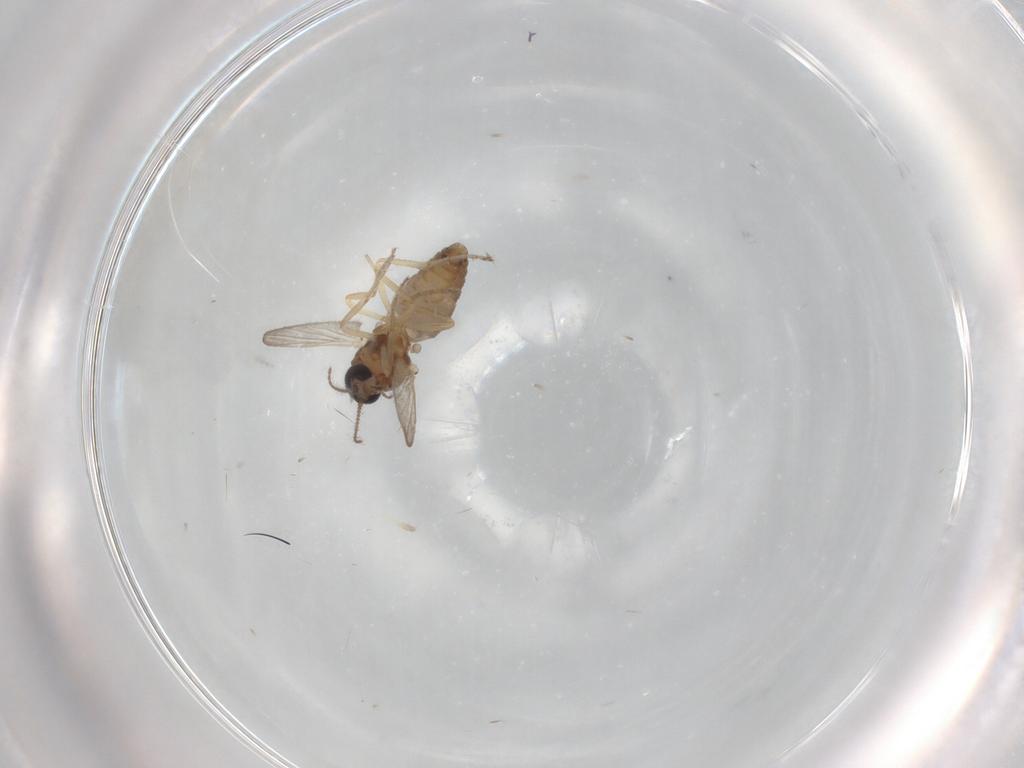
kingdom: Animalia
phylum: Arthropoda
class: Insecta
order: Diptera
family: Ceratopogonidae
